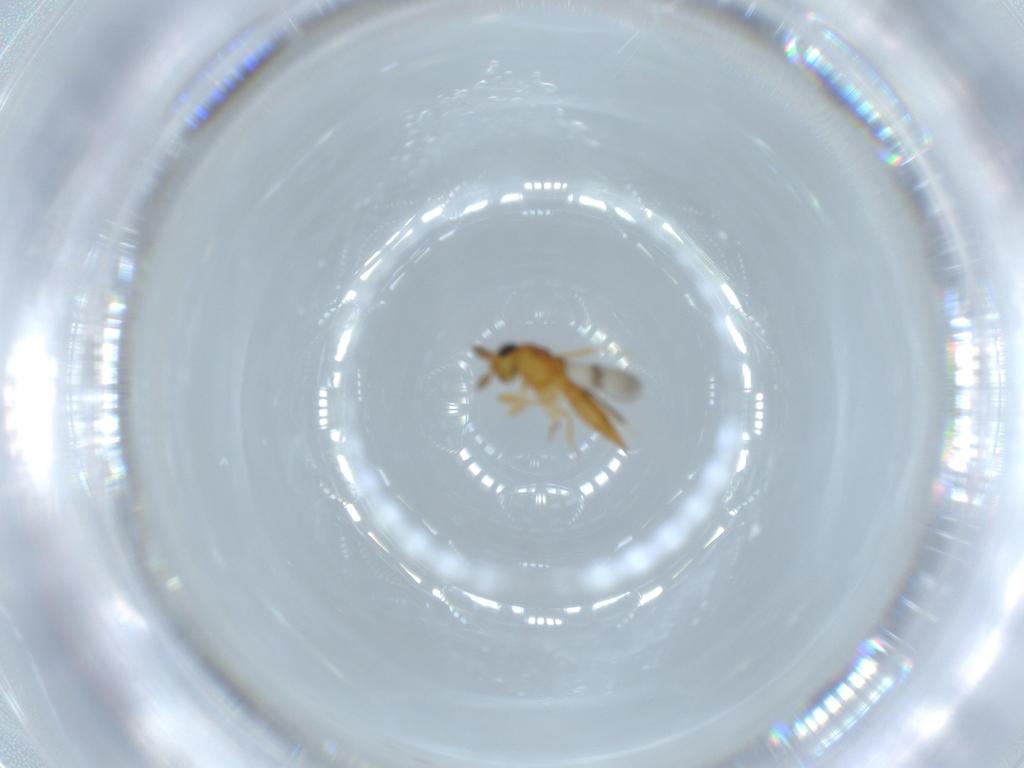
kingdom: Animalia
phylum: Arthropoda
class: Insecta
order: Hymenoptera
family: Scelionidae
